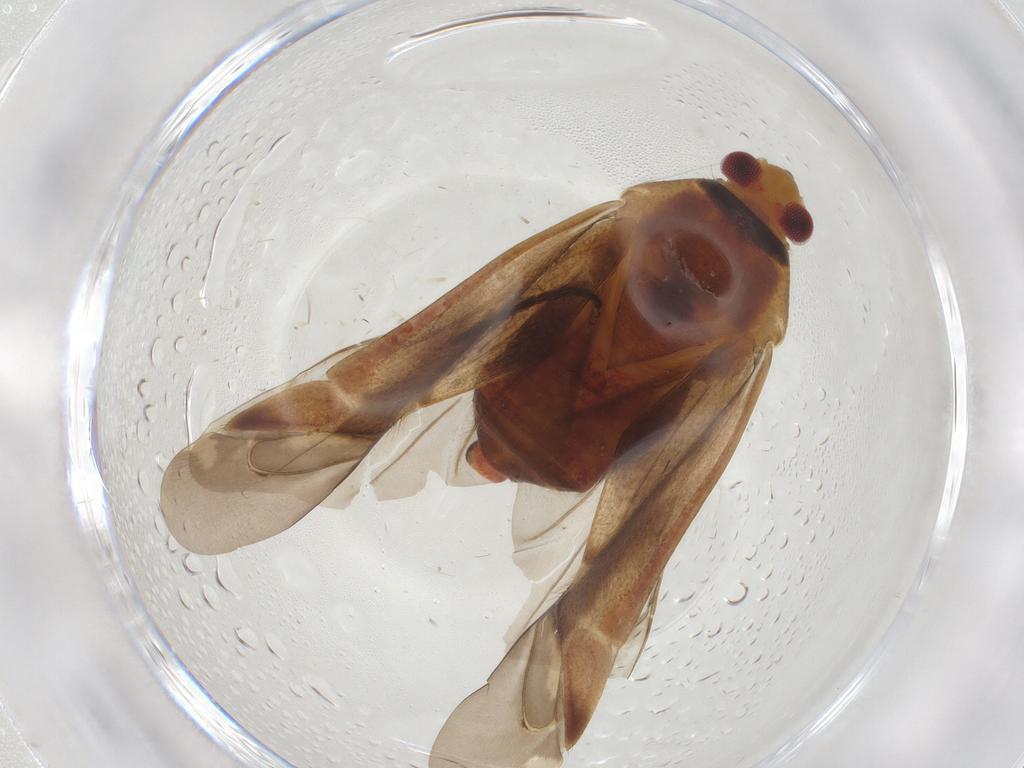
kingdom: Animalia
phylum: Arthropoda
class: Insecta
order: Hemiptera
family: Miridae
